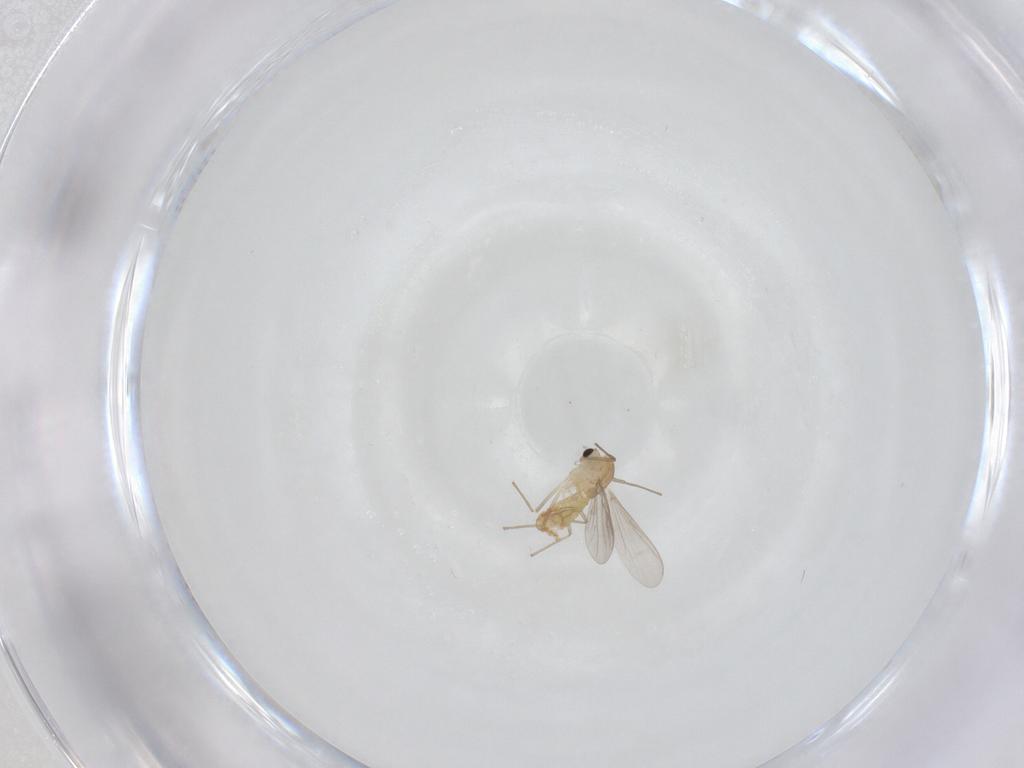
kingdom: Animalia
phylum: Arthropoda
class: Insecta
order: Diptera
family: Chironomidae
